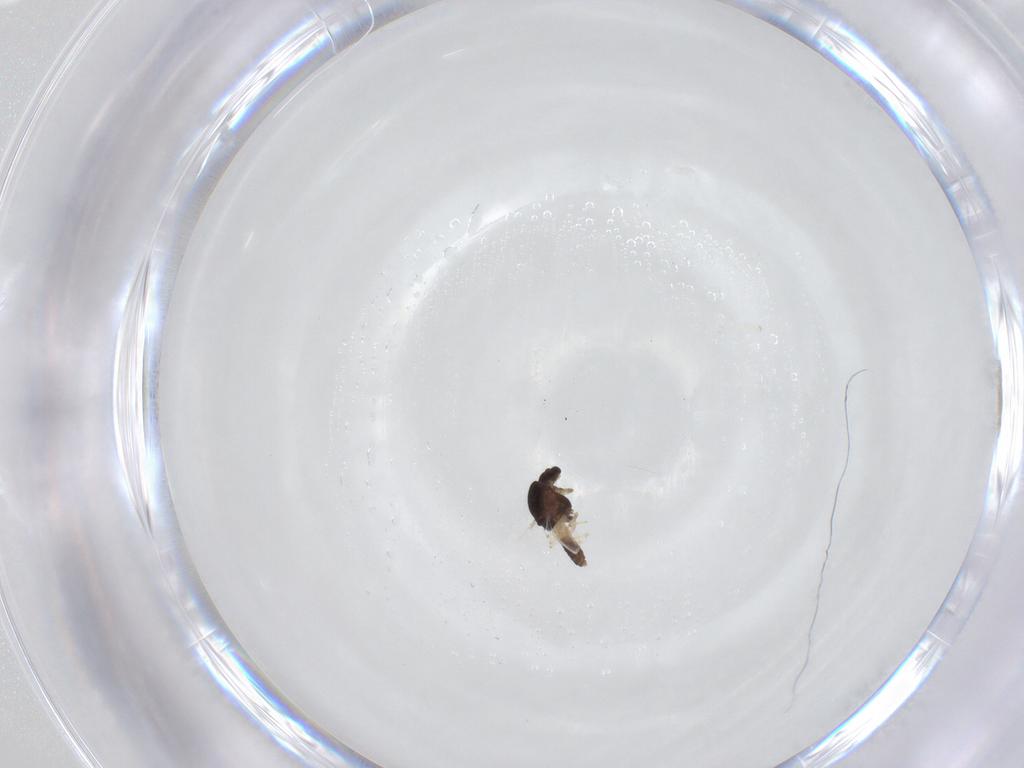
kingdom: Animalia
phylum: Arthropoda
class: Insecta
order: Diptera
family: Chironomidae
